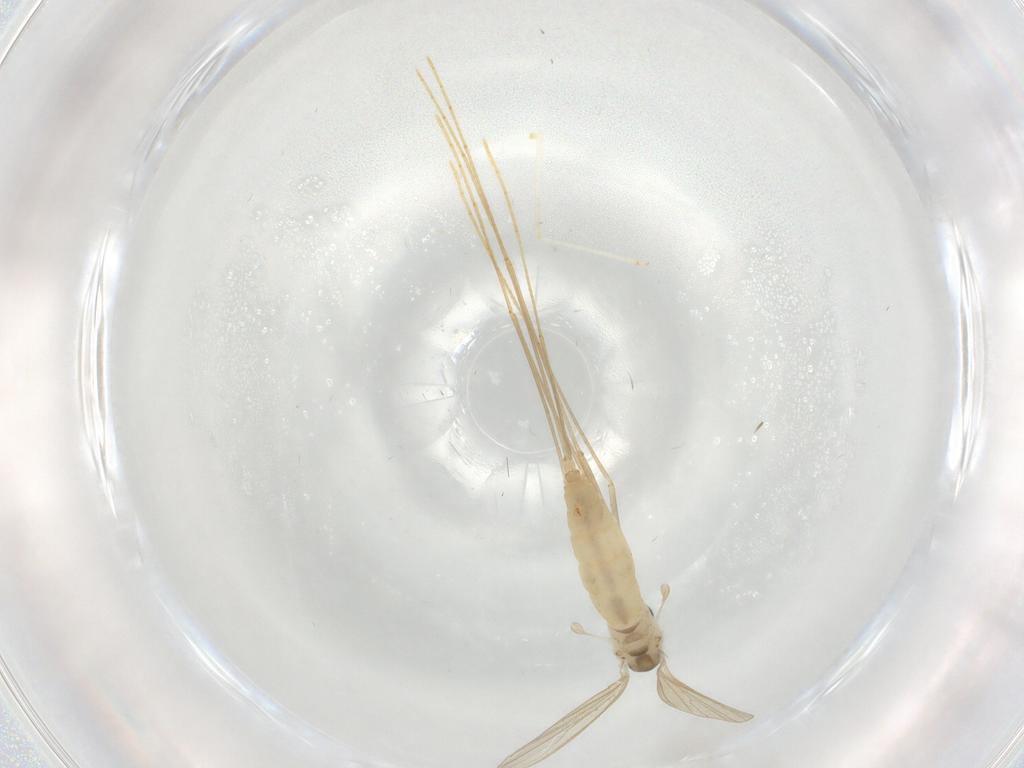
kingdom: Animalia
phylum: Arthropoda
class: Insecta
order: Diptera
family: Psychodidae
